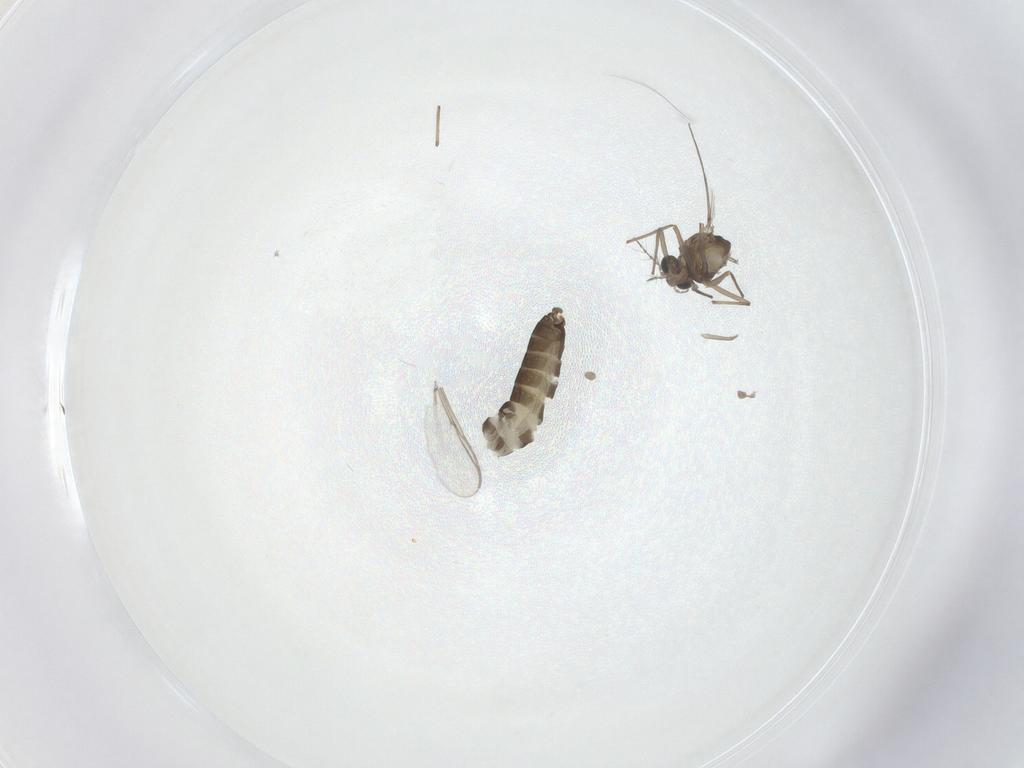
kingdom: Animalia
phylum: Arthropoda
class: Insecta
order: Diptera
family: Chironomidae
